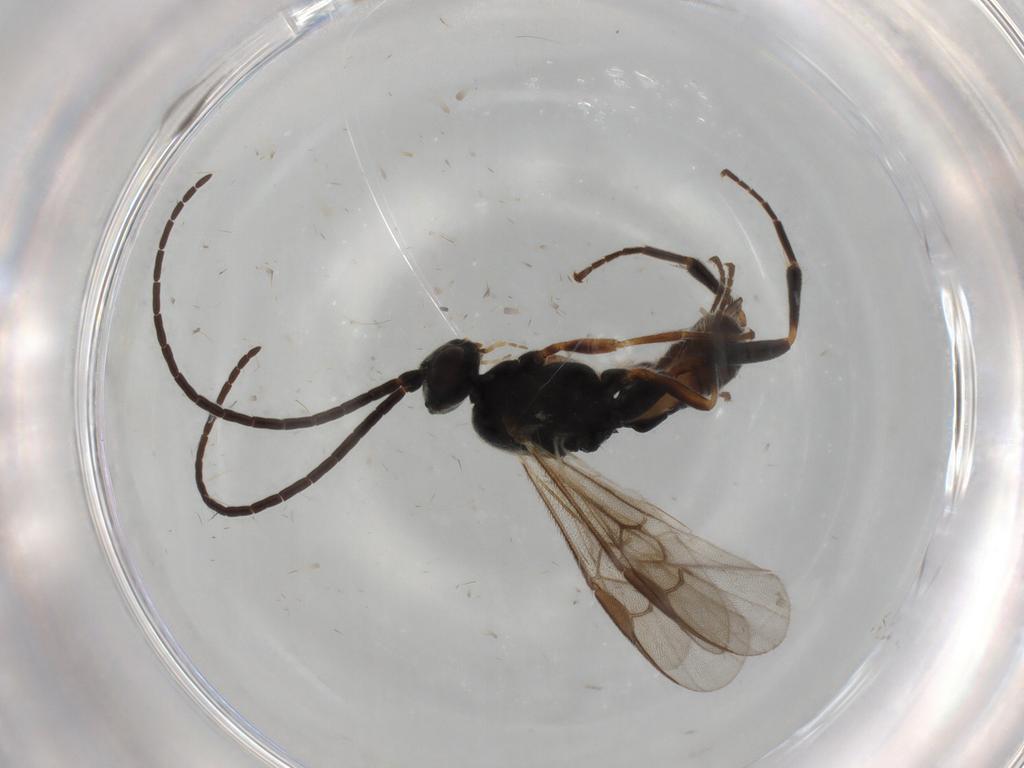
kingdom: Animalia
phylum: Arthropoda
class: Insecta
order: Hymenoptera
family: Braconidae
